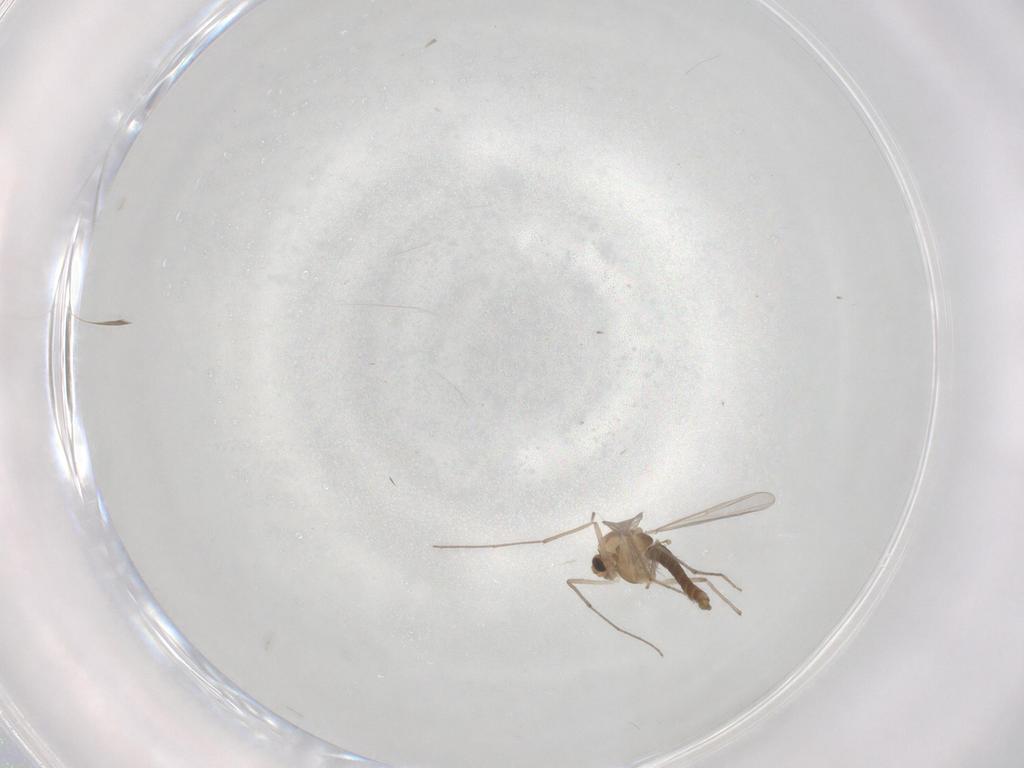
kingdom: Animalia
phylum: Arthropoda
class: Insecta
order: Diptera
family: Chironomidae
